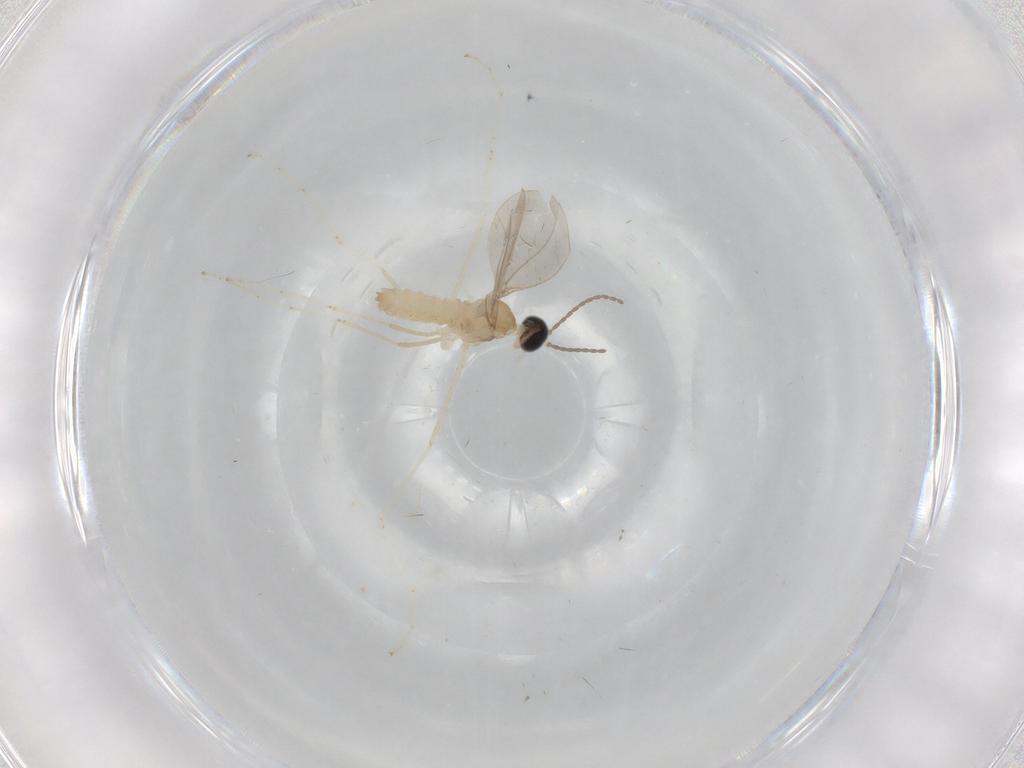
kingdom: Animalia
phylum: Arthropoda
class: Insecta
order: Diptera
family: Cecidomyiidae
